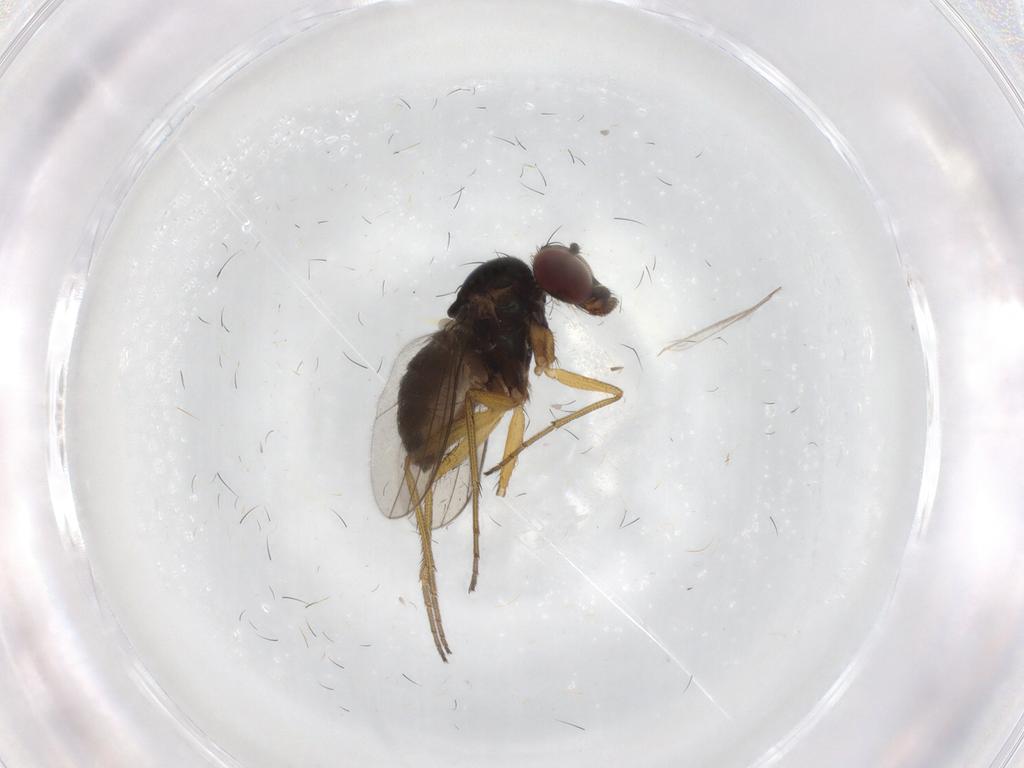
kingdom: Animalia
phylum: Arthropoda
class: Insecta
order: Diptera
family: Dolichopodidae
